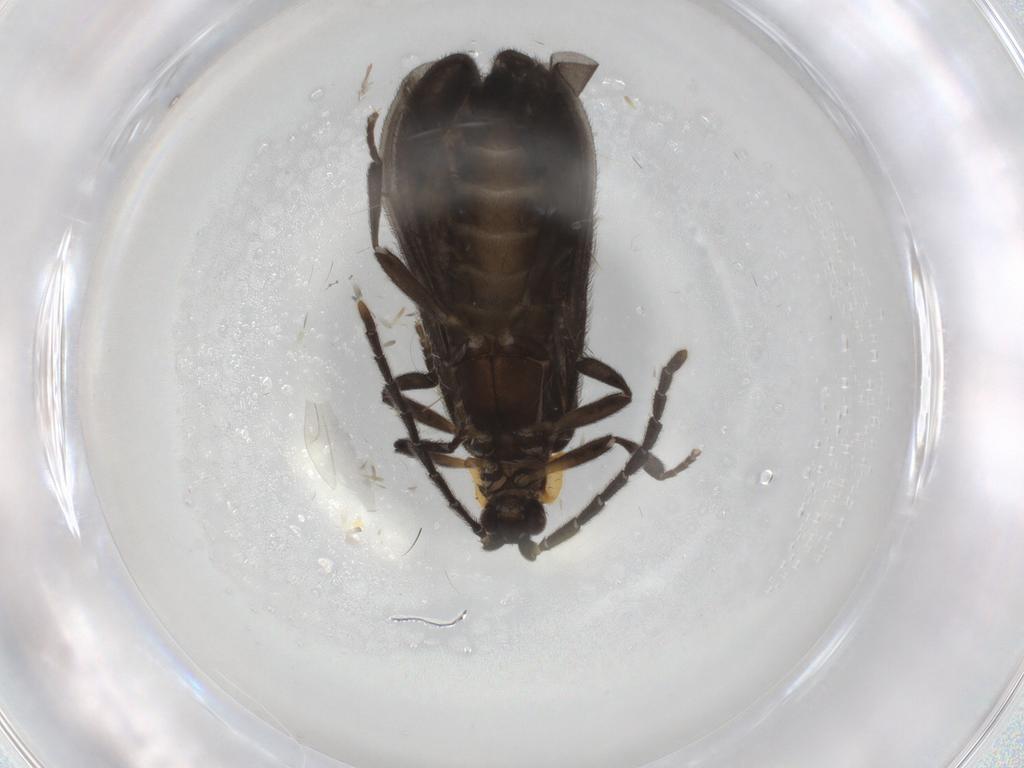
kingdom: Animalia
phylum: Arthropoda
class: Insecta
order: Coleoptera
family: Lycidae
